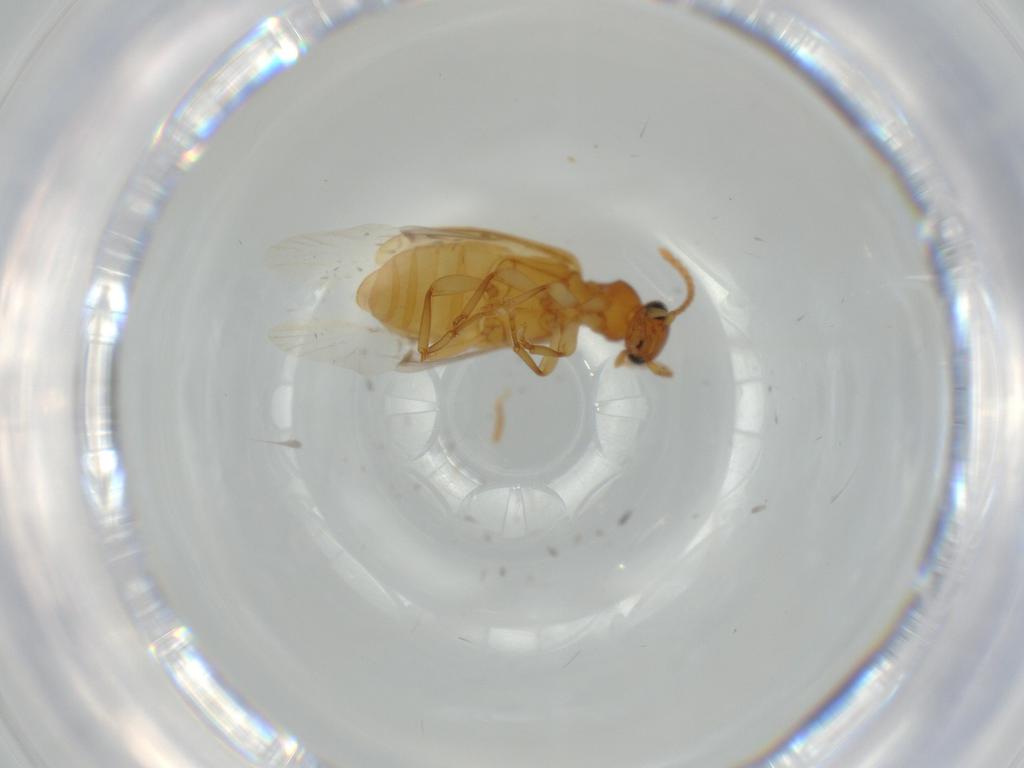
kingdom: Animalia
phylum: Arthropoda
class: Insecta
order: Coleoptera
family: Anthicidae
